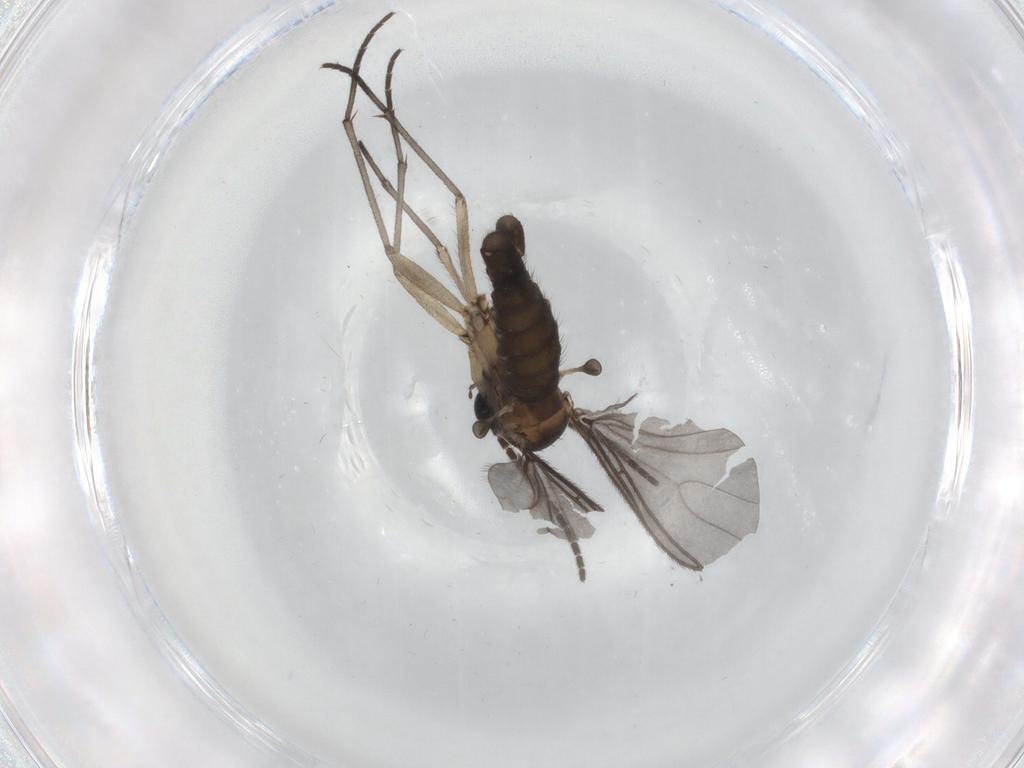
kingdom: Animalia
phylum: Arthropoda
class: Insecta
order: Diptera
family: Sciaridae
